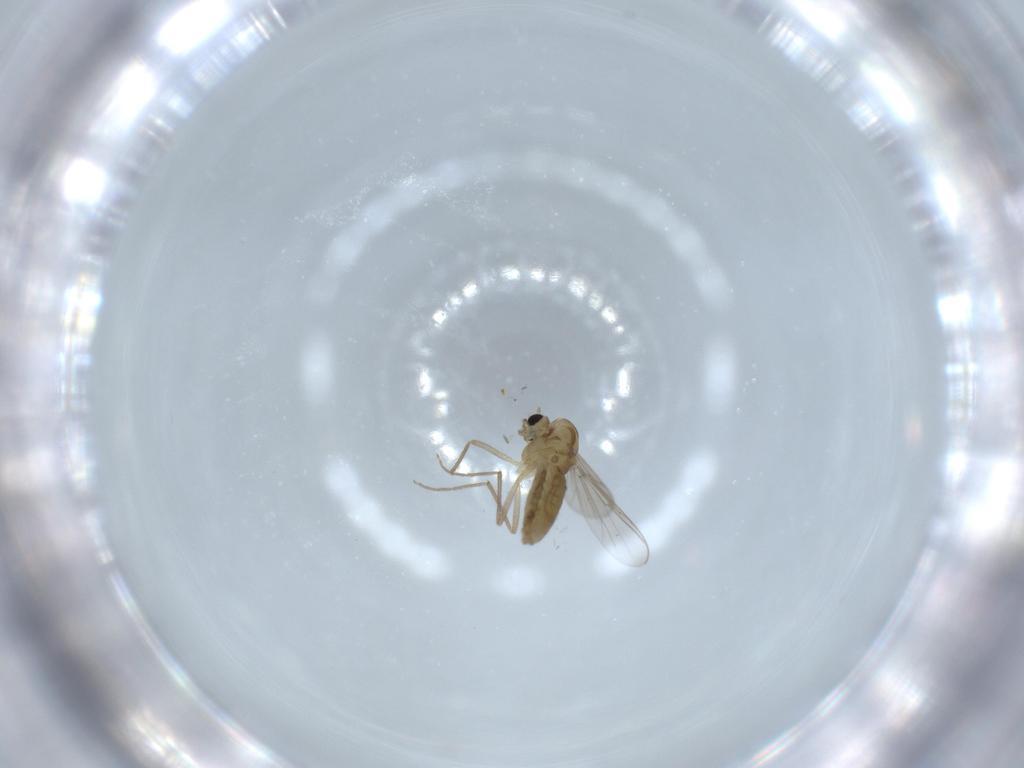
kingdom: Animalia
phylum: Arthropoda
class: Insecta
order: Diptera
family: Chironomidae
